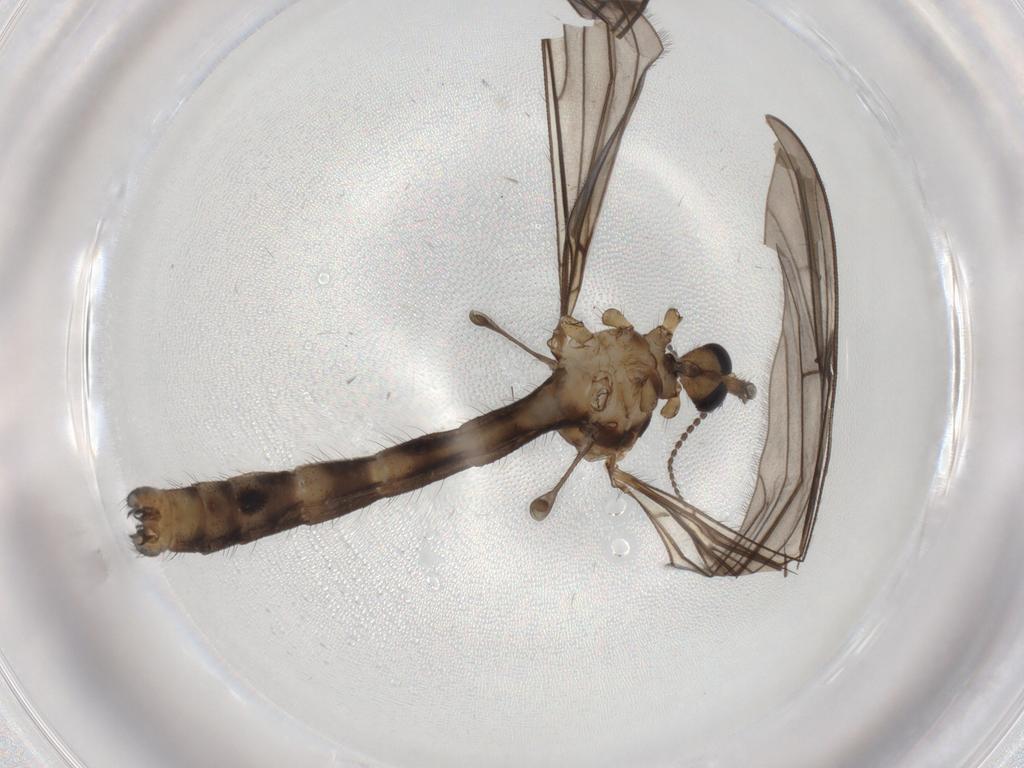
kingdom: Animalia
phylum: Arthropoda
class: Insecta
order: Diptera
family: Limoniidae
